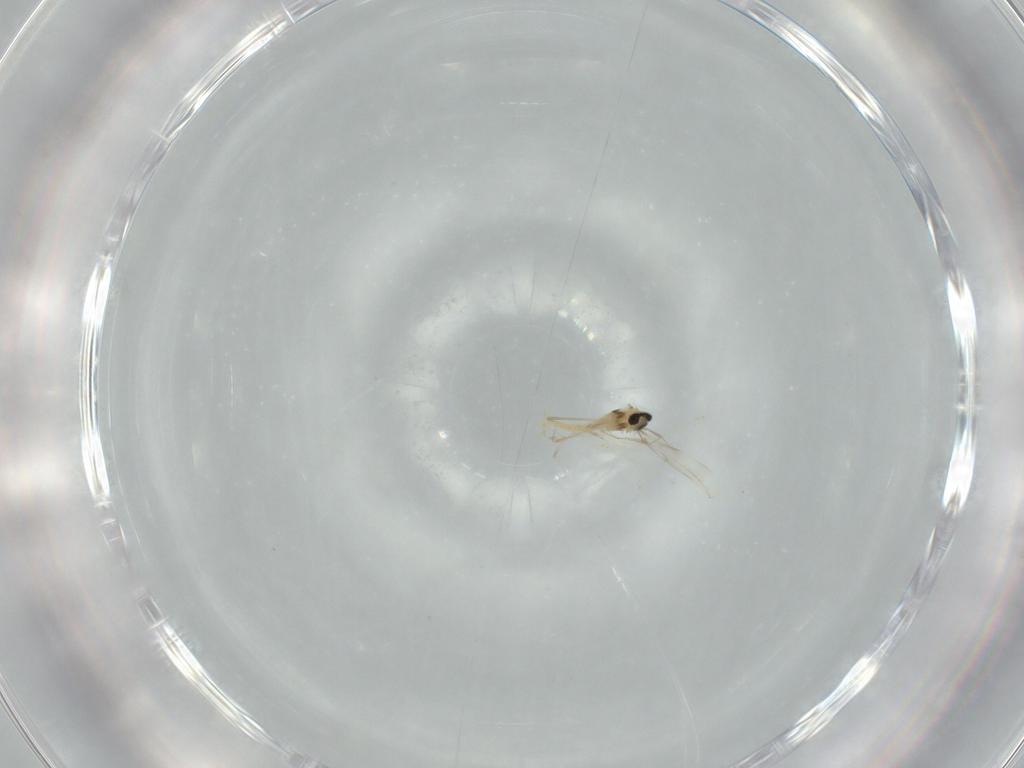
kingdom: Animalia
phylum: Arthropoda
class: Insecta
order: Diptera
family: Cecidomyiidae
